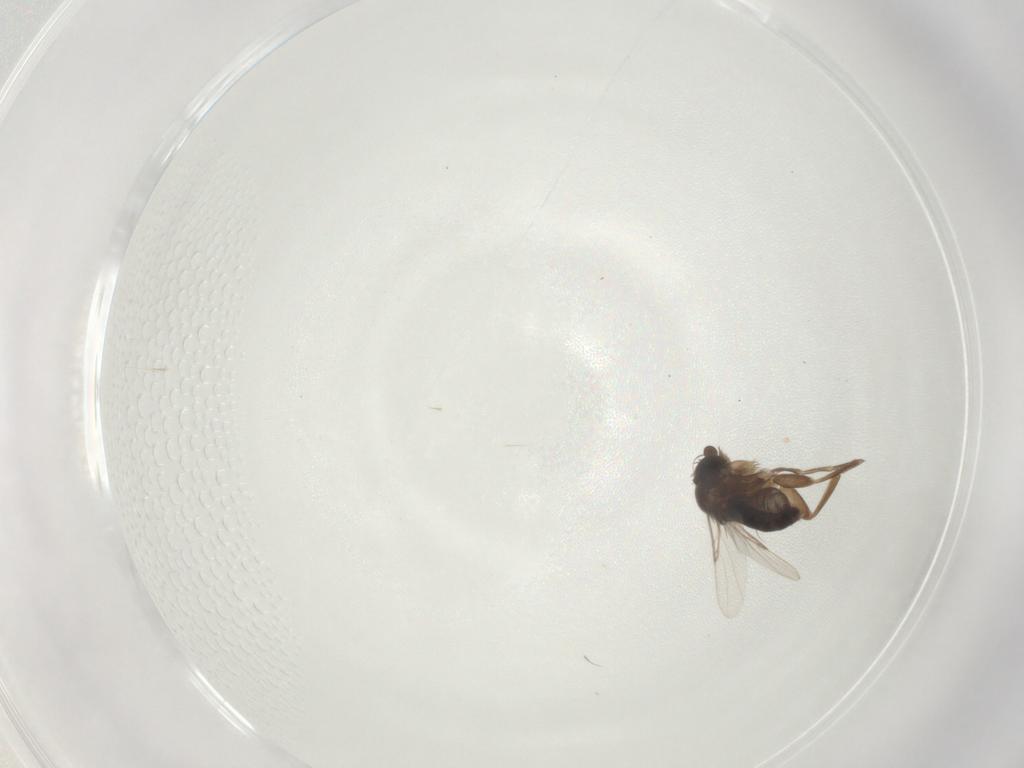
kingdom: Animalia
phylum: Arthropoda
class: Insecta
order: Diptera
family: Phoridae
